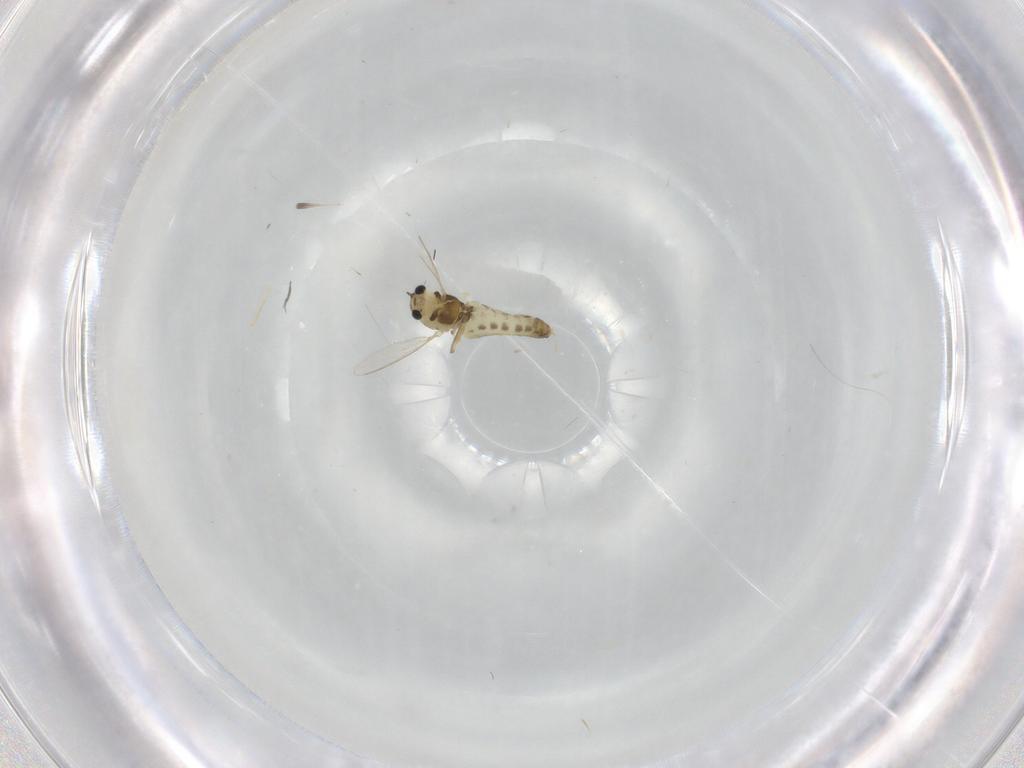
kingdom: Animalia
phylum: Arthropoda
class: Insecta
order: Diptera
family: Chironomidae
